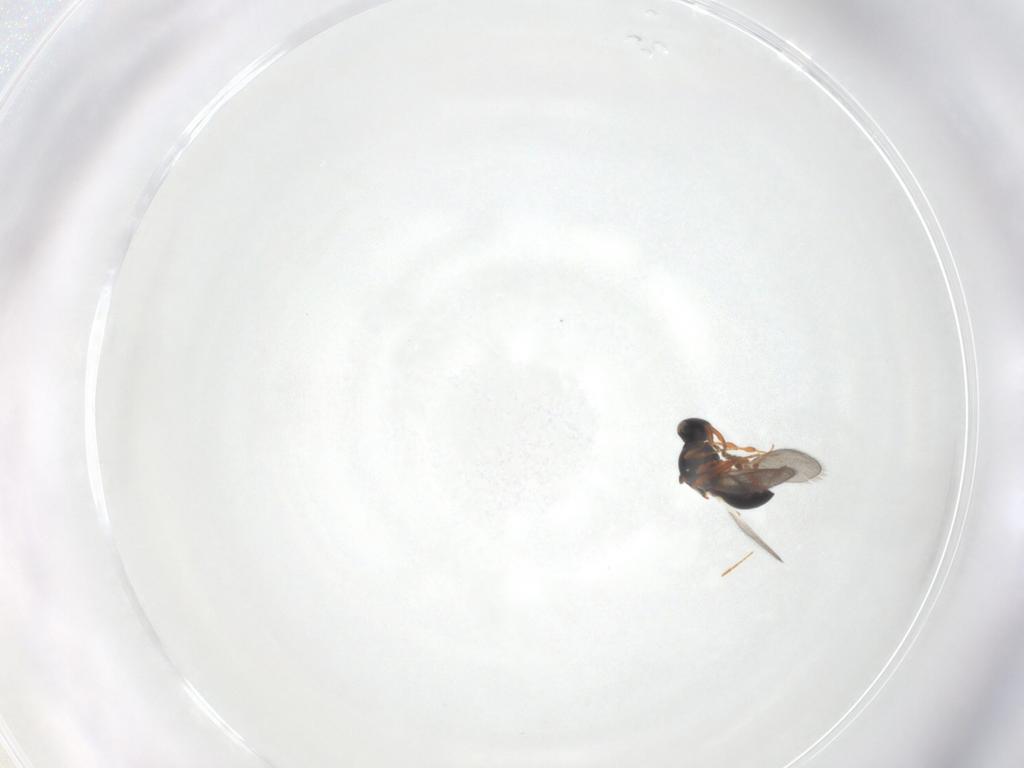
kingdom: Animalia
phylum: Arthropoda
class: Insecta
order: Hymenoptera
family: Platygastridae
